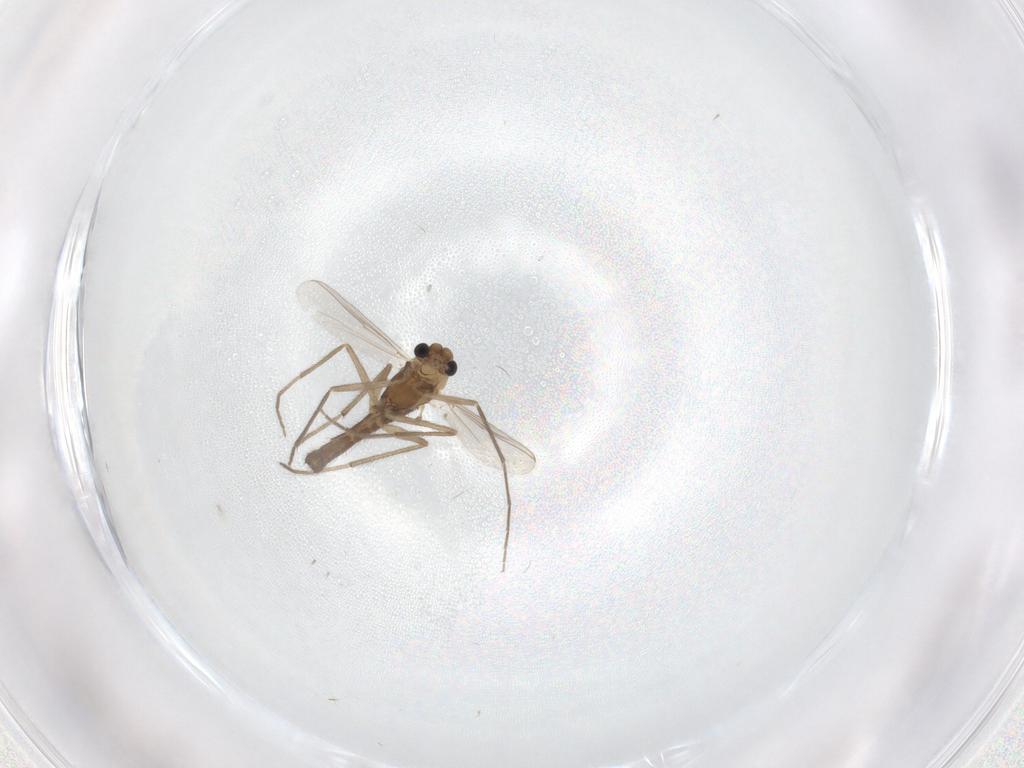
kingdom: Animalia
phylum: Arthropoda
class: Insecta
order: Diptera
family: Chironomidae
